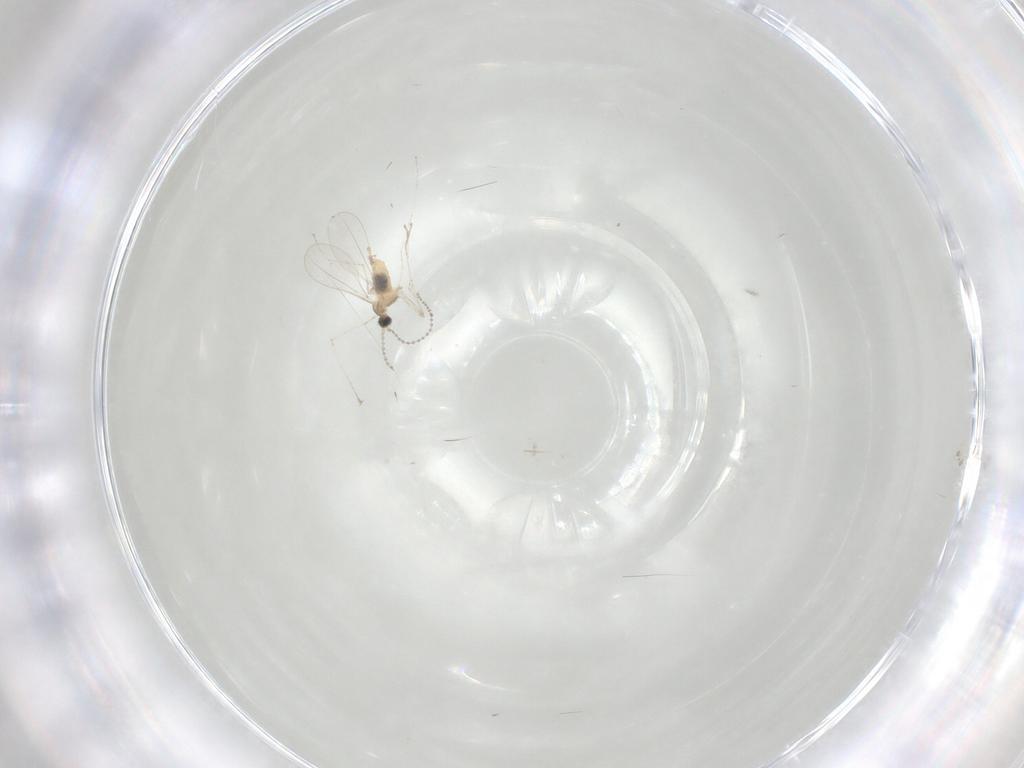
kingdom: Animalia
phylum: Arthropoda
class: Insecta
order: Diptera
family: Cecidomyiidae
